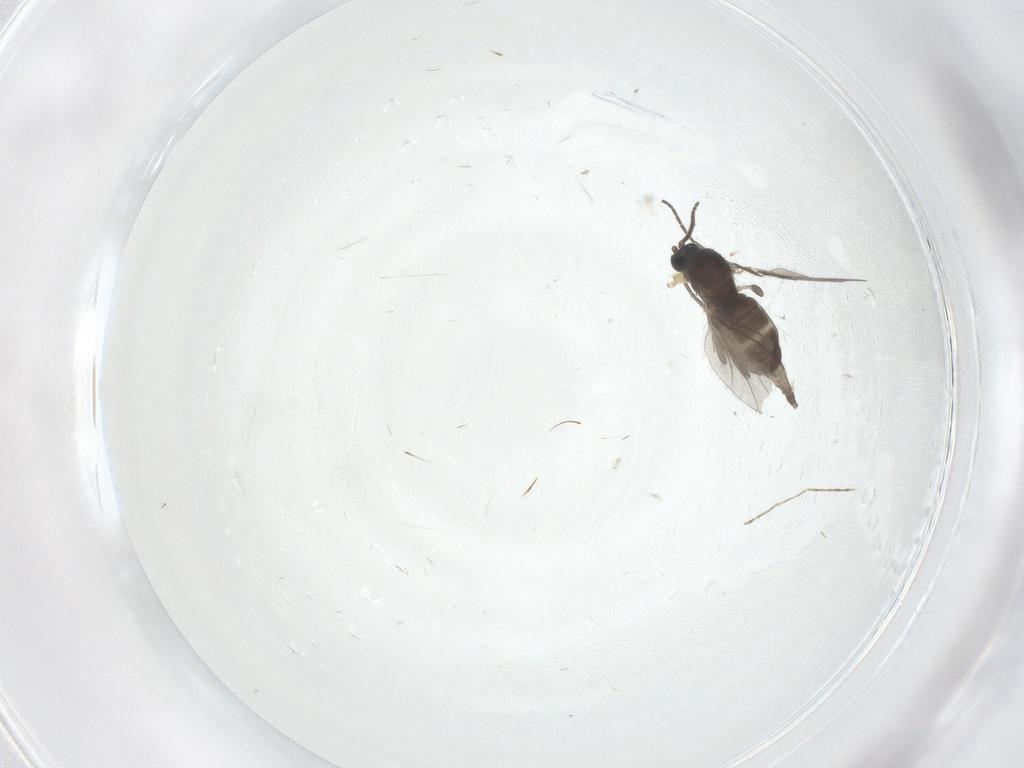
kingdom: Animalia
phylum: Arthropoda
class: Insecta
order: Diptera
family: Sciaridae
